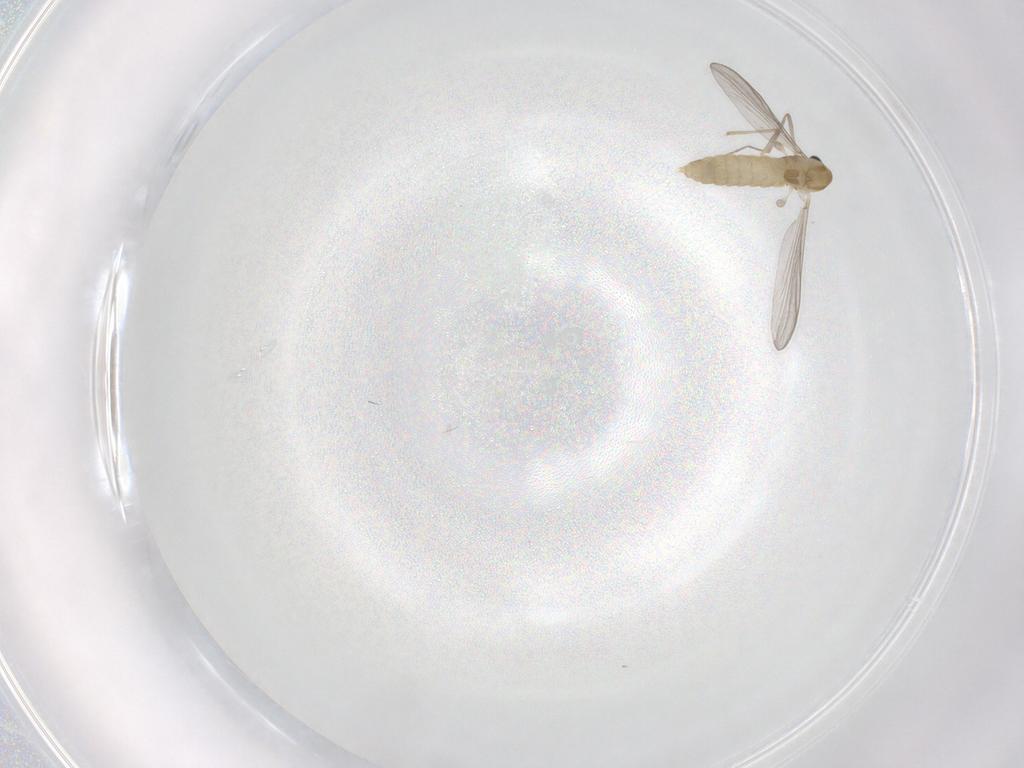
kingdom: Animalia
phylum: Arthropoda
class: Insecta
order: Diptera
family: Chironomidae
